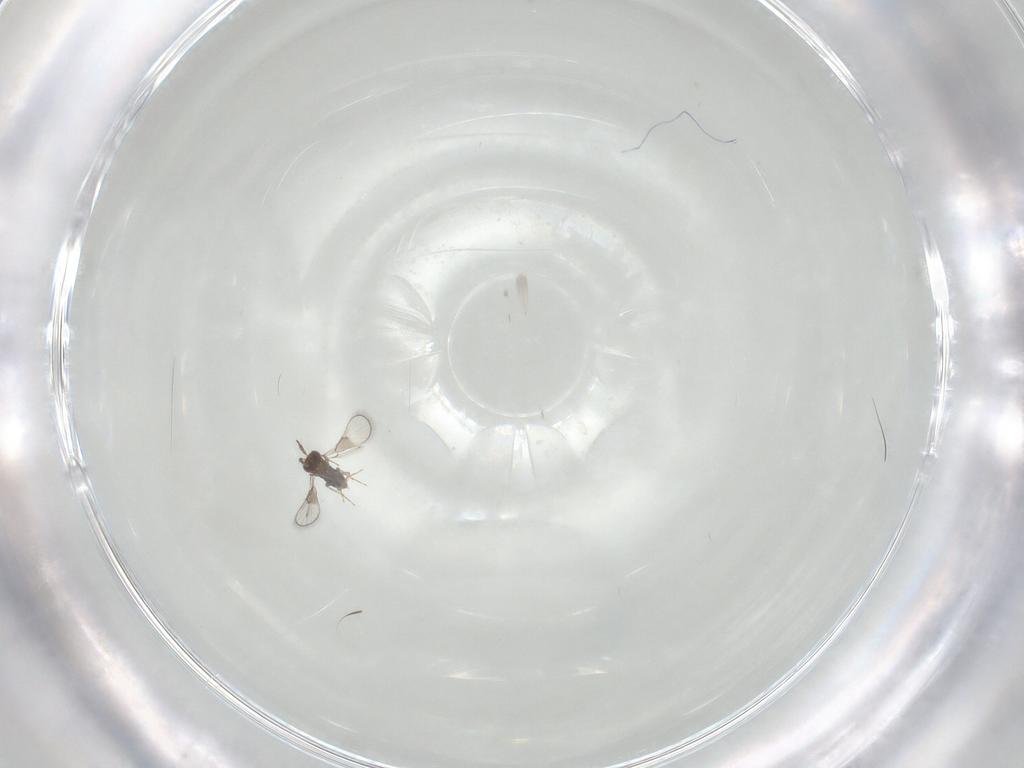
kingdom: Animalia
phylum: Arthropoda
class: Insecta
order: Hymenoptera
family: Trichogrammatidae
